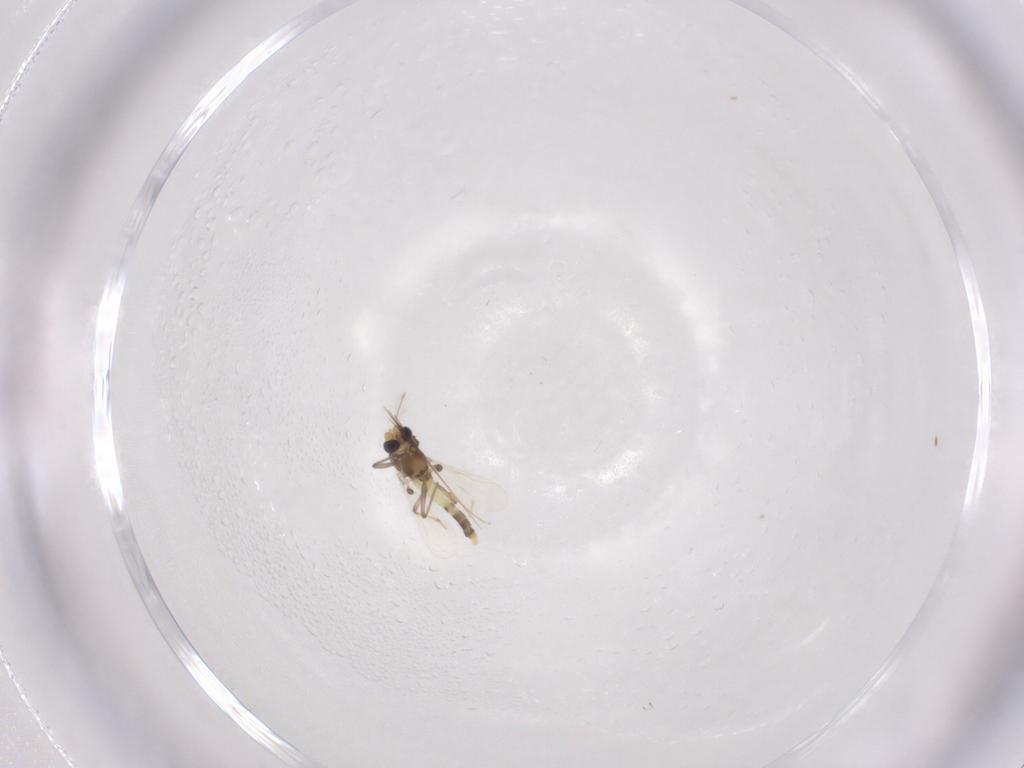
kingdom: Animalia
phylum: Arthropoda
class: Insecta
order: Diptera
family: Chironomidae
